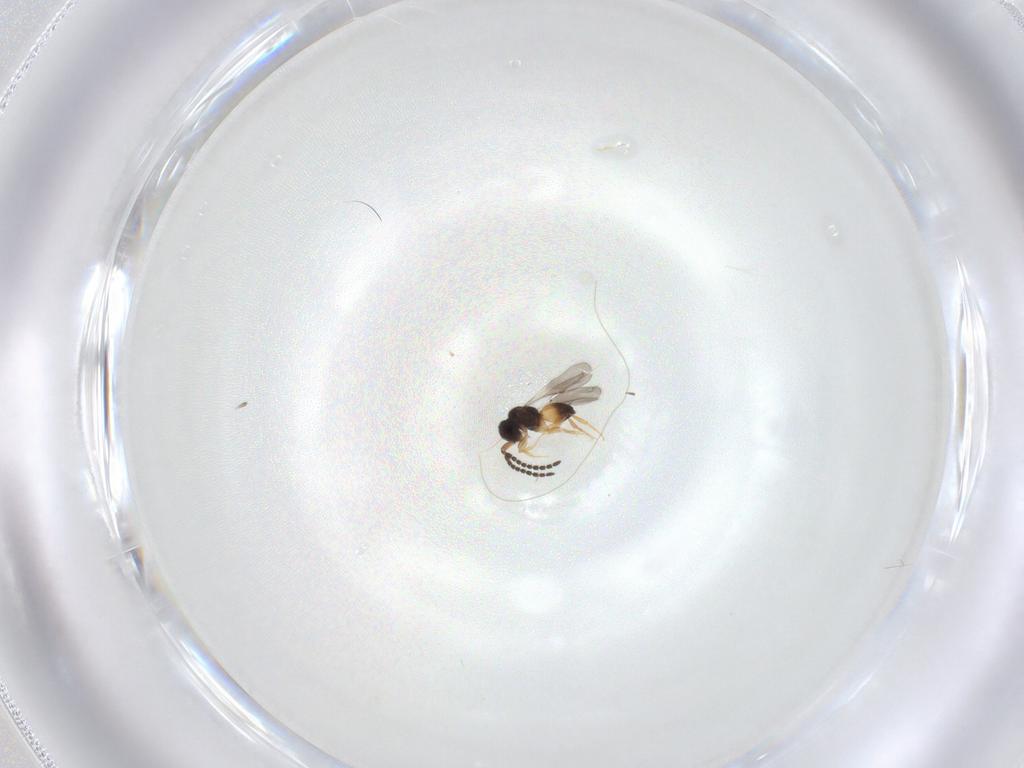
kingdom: Animalia
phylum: Arthropoda
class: Insecta
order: Hymenoptera
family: Ceraphronidae
